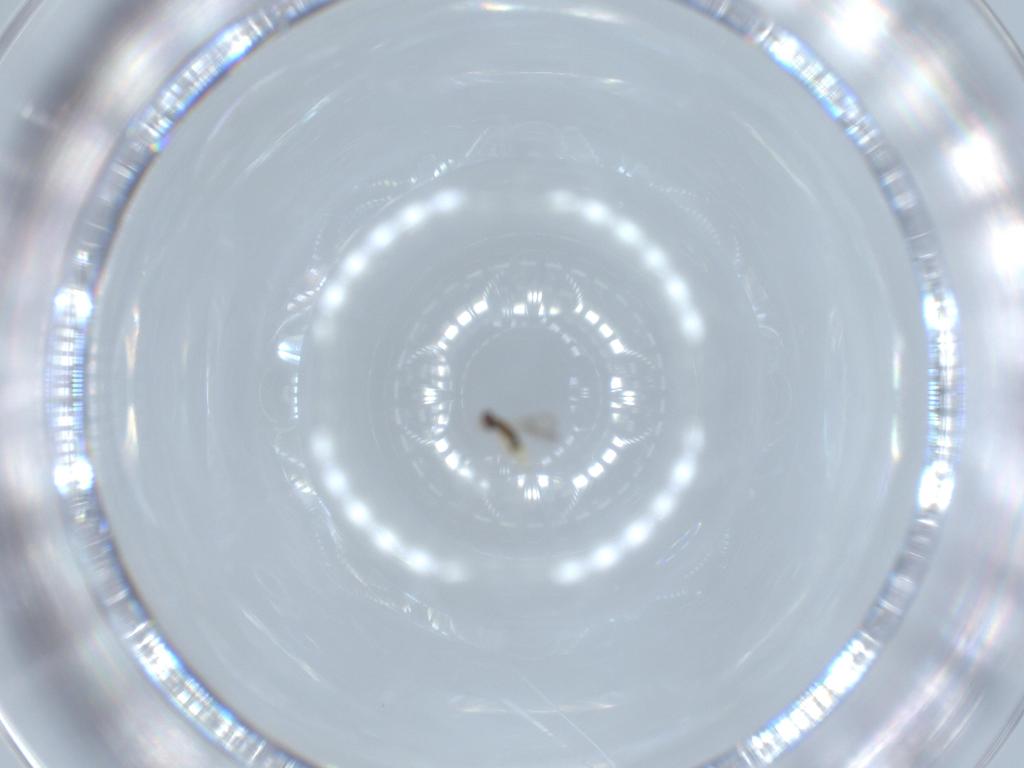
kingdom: Animalia
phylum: Arthropoda
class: Insecta
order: Hymenoptera
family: Aphelinidae
